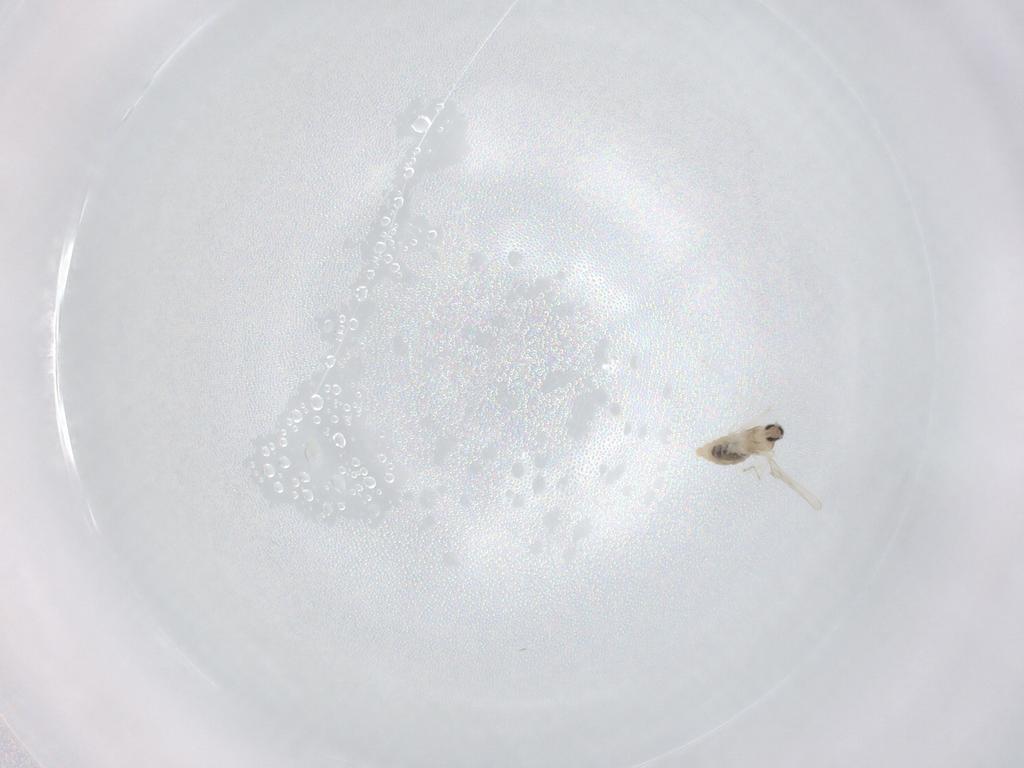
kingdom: Animalia
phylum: Arthropoda
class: Insecta
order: Diptera
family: Cecidomyiidae
